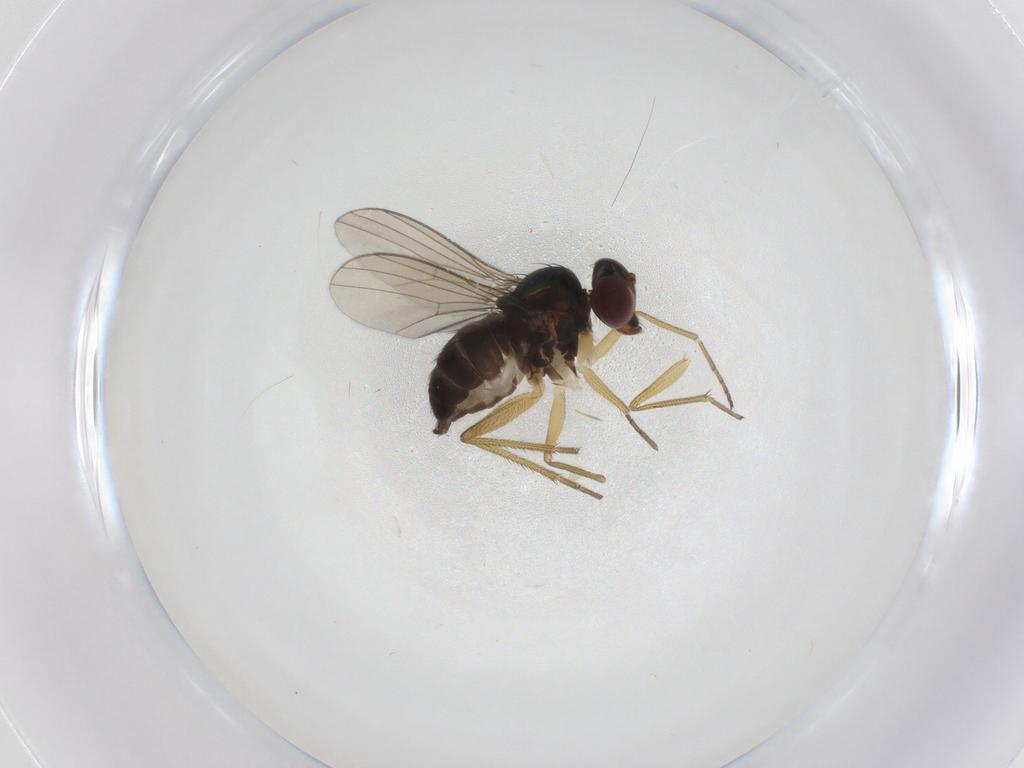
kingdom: Animalia
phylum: Arthropoda
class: Insecta
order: Diptera
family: Dolichopodidae
